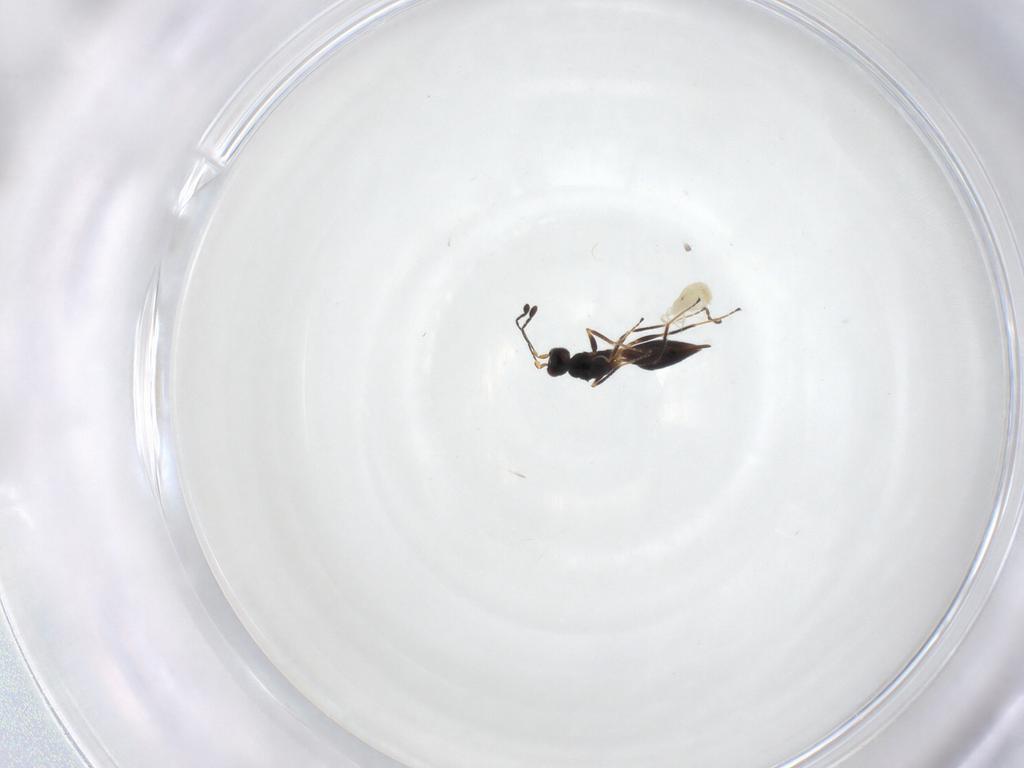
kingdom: Animalia
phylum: Arthropoda
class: Arachnida
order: Mesostigmata
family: Phytoseiidae
